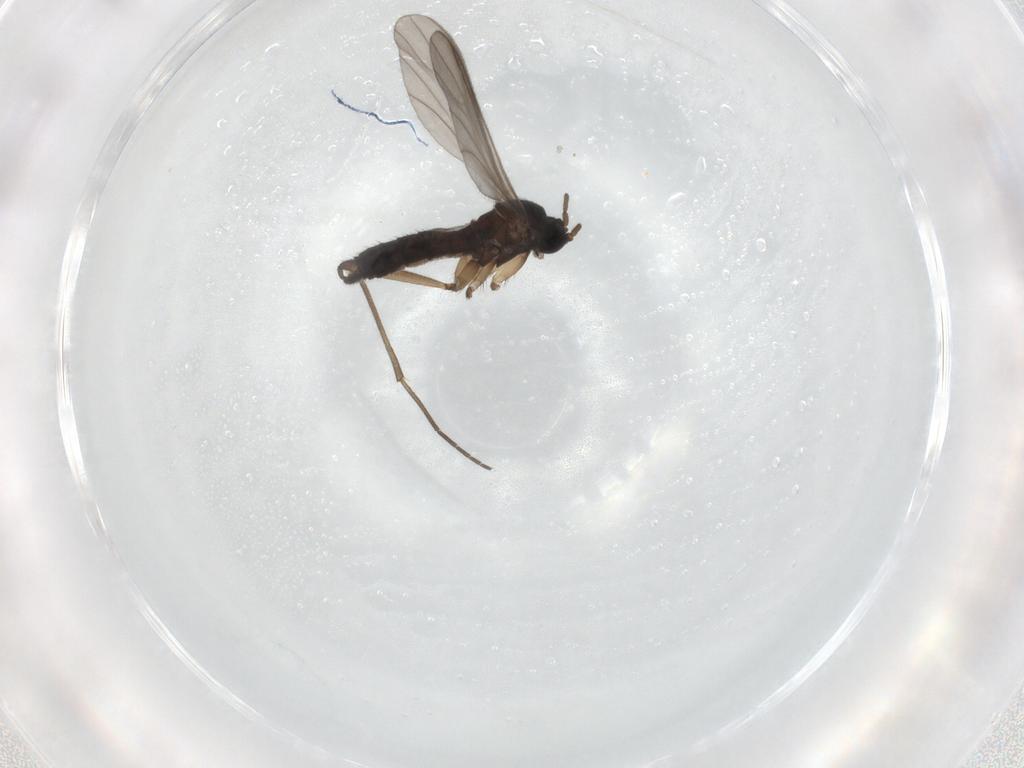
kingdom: Animalia
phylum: Arthropoda
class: Insecta
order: Diptera
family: Sciaridae
